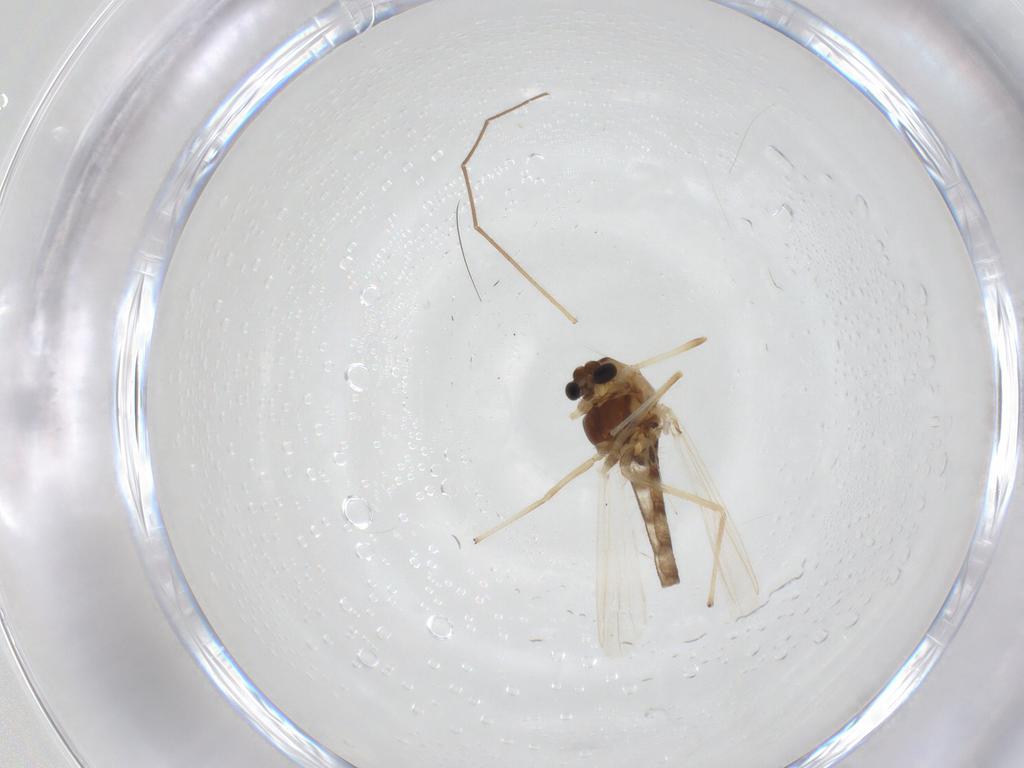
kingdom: Animalia
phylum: Arthropoda
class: Insecta
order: Diptera
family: Chironomidae
